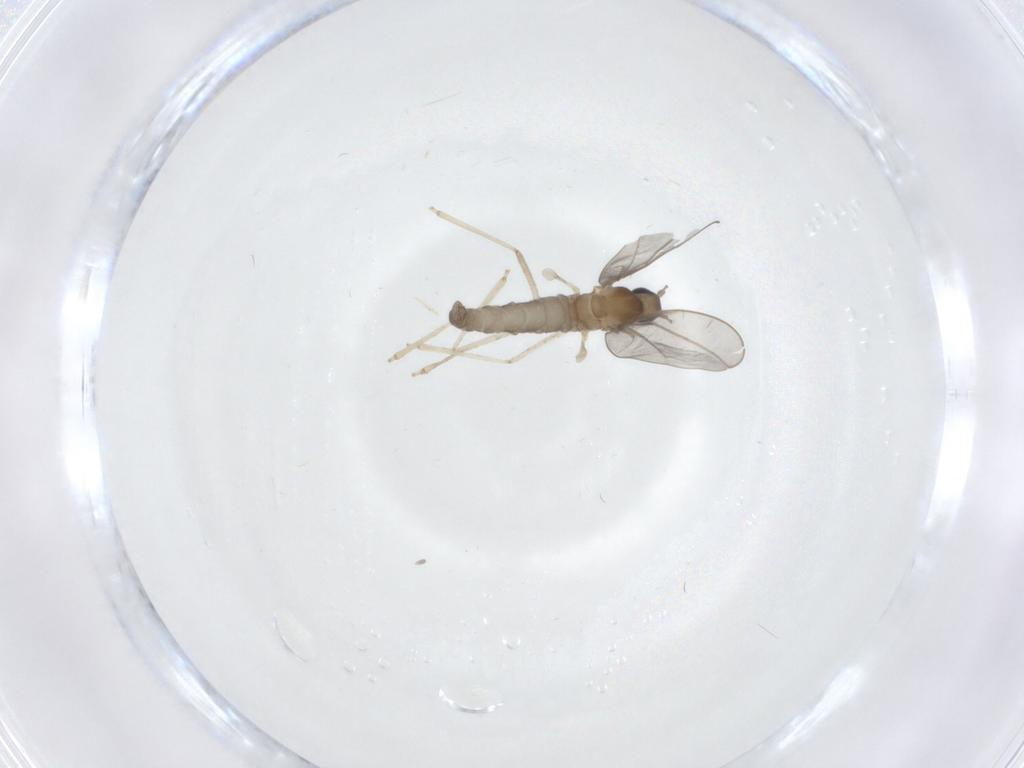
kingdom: Animalia
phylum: Arthropoda
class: Insecta
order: Diptera
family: Cecidomyiidae
